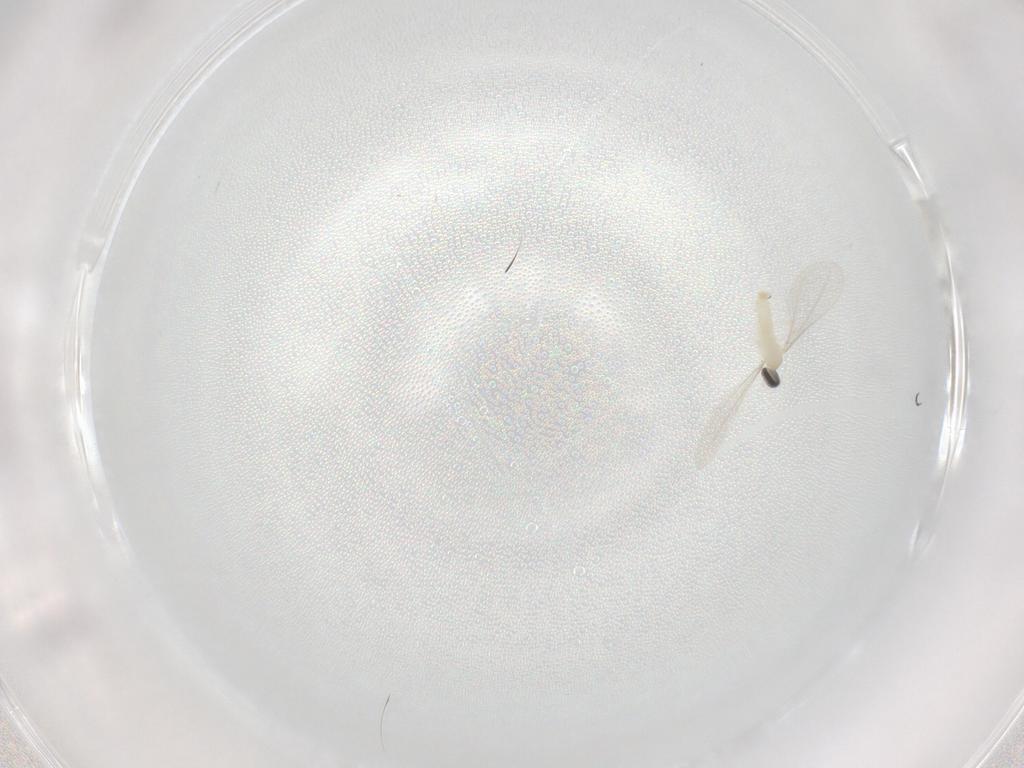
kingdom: Animalia
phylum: Arthropoda
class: Insecta
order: Diptera
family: Cecidomyiidae
